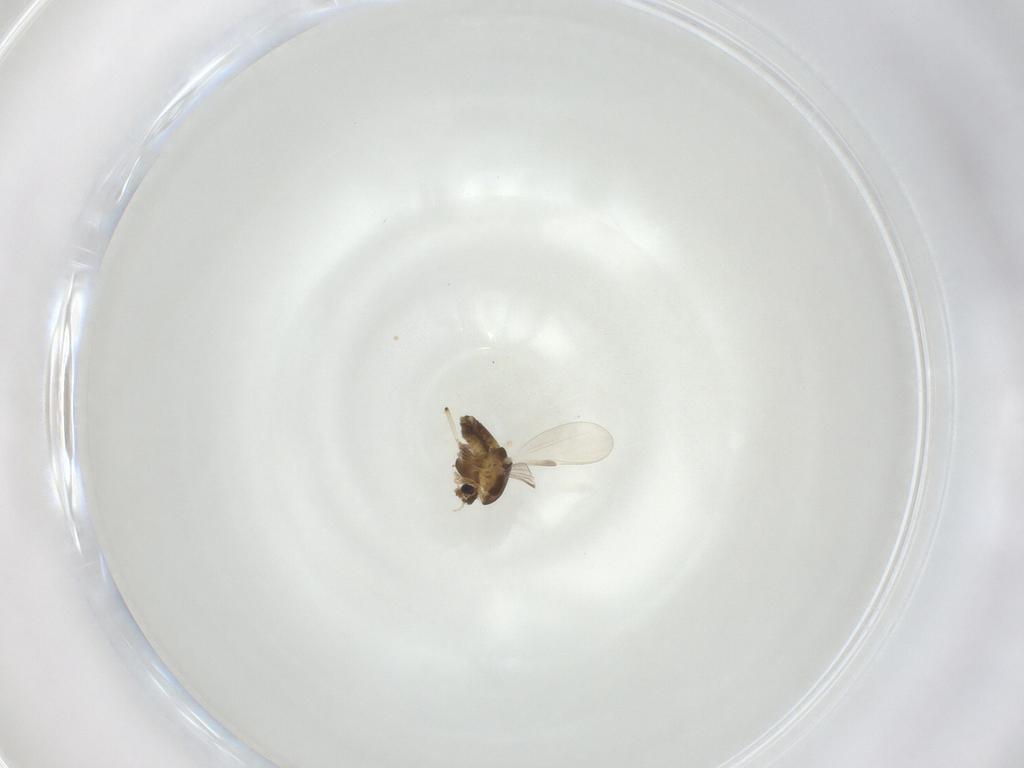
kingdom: Animalia
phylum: Arthropoda
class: Insecta
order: Diptera
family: Chironomidae
